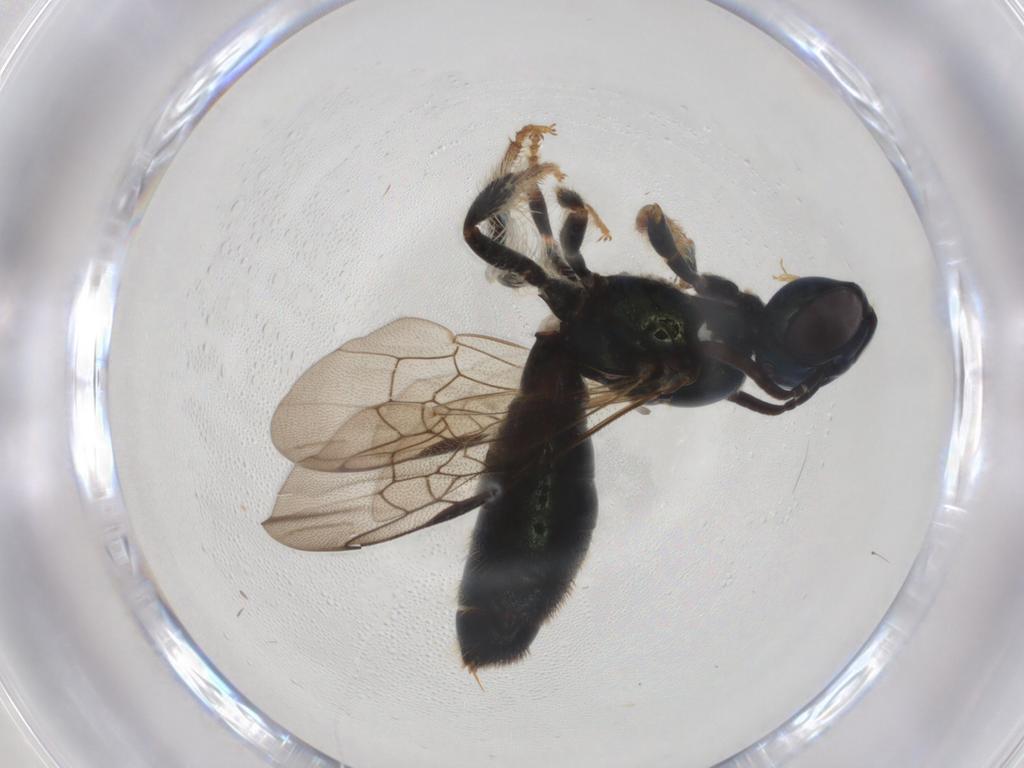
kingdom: Animalia
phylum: Arthropoda
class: Insecta
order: Hymenoptera
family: Apidae
